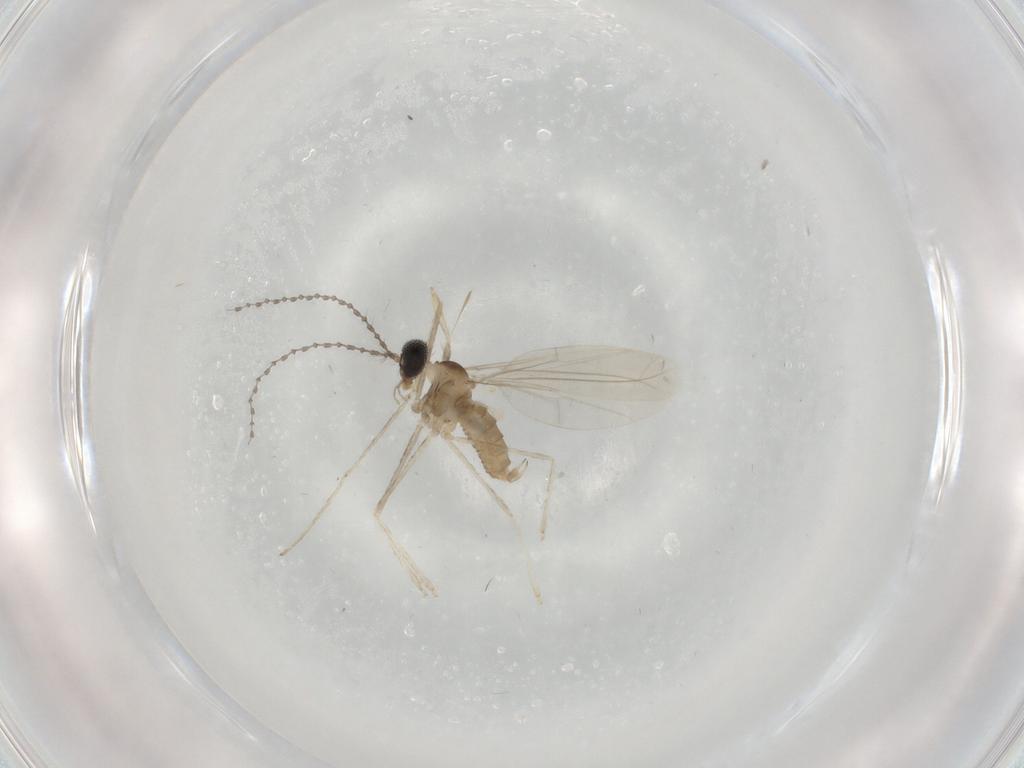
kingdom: Animalia
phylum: Arthropoda
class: Insecta
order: Diptera
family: Cecidomyiidae
